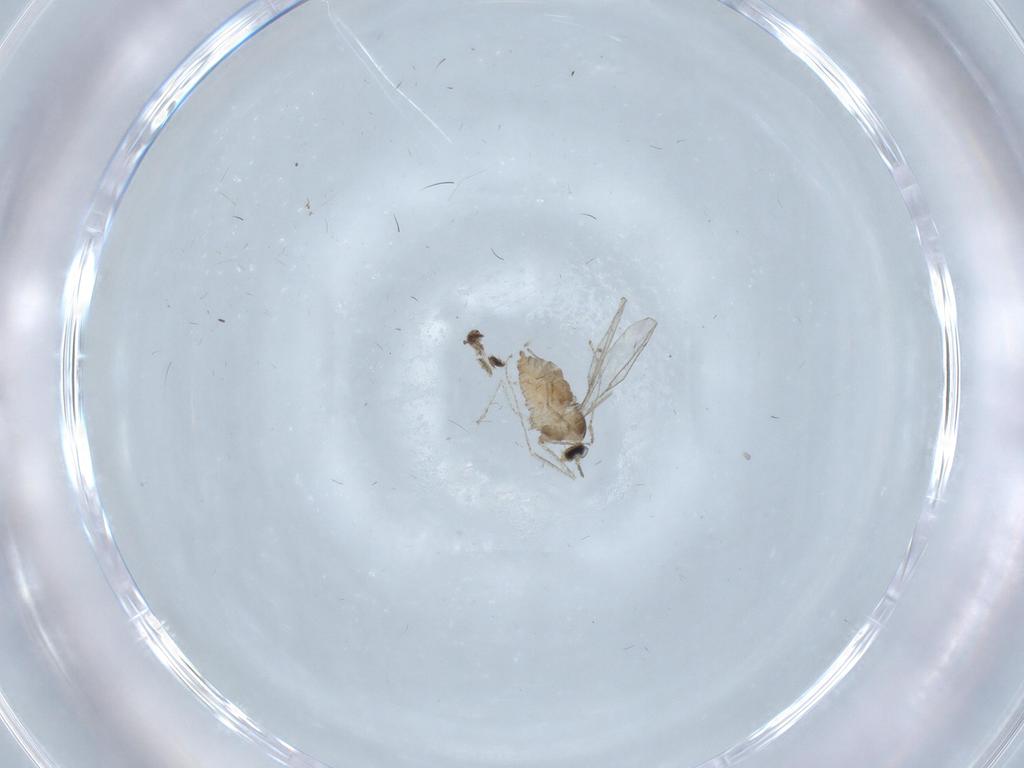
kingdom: Animalia
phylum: Arthropoda
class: Insecta
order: Diptera
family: Cecidomyiidae
